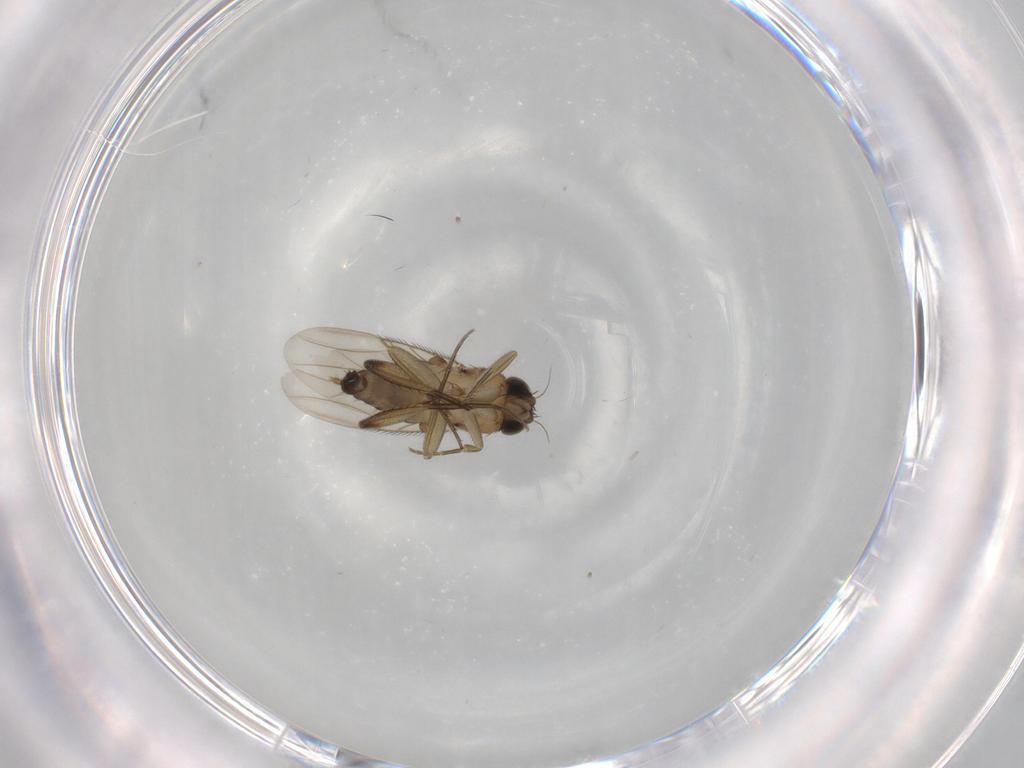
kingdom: Animalia
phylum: Arthropoda
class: Insecta
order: Diptera
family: Phoridae
